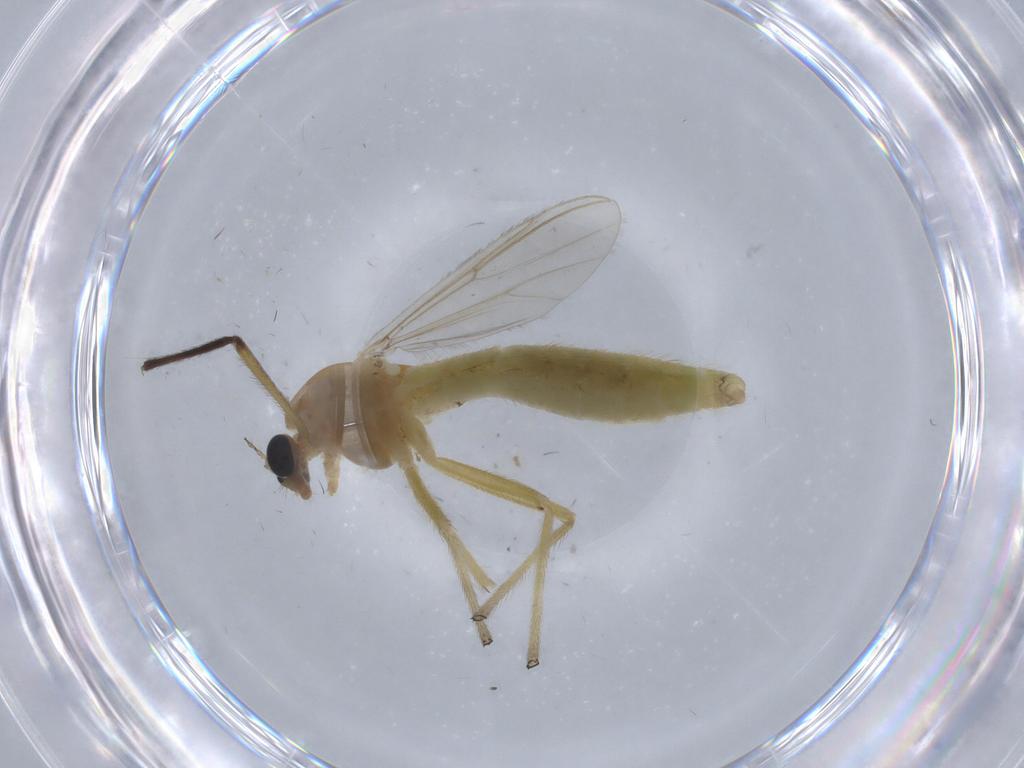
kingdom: Animalia
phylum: Arthropoda
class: Insecta
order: Diptera
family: Chironomidae
